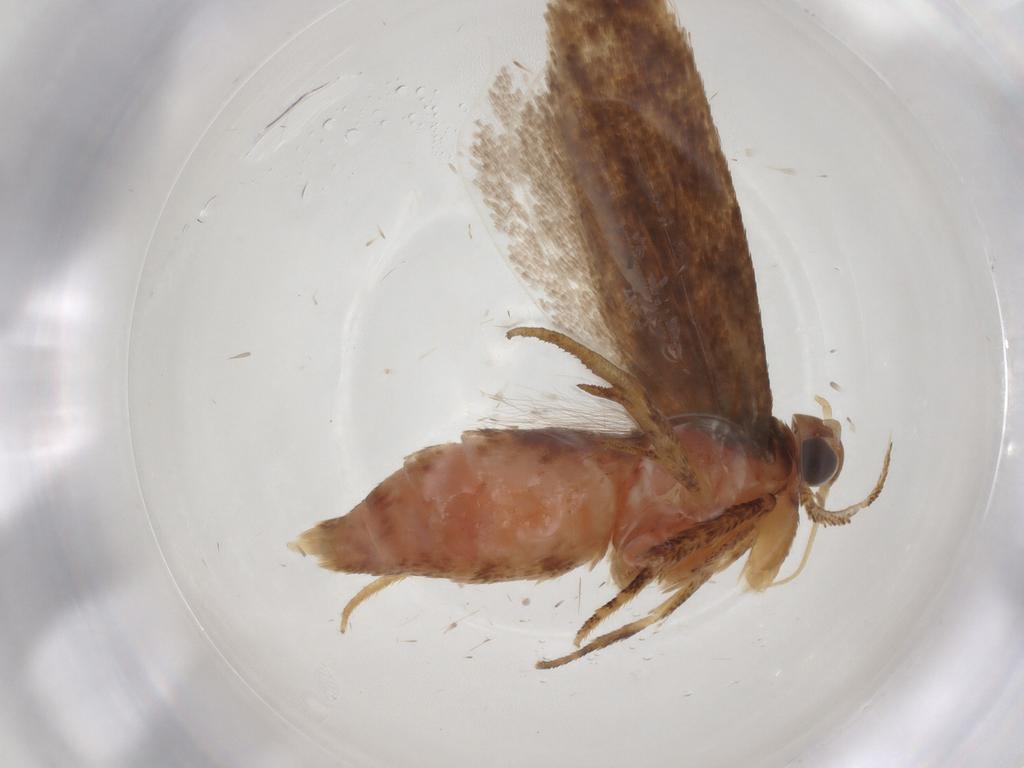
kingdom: Animalia
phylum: Arthropoda
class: Insecta
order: Lepidoptera
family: Gelechiidae
